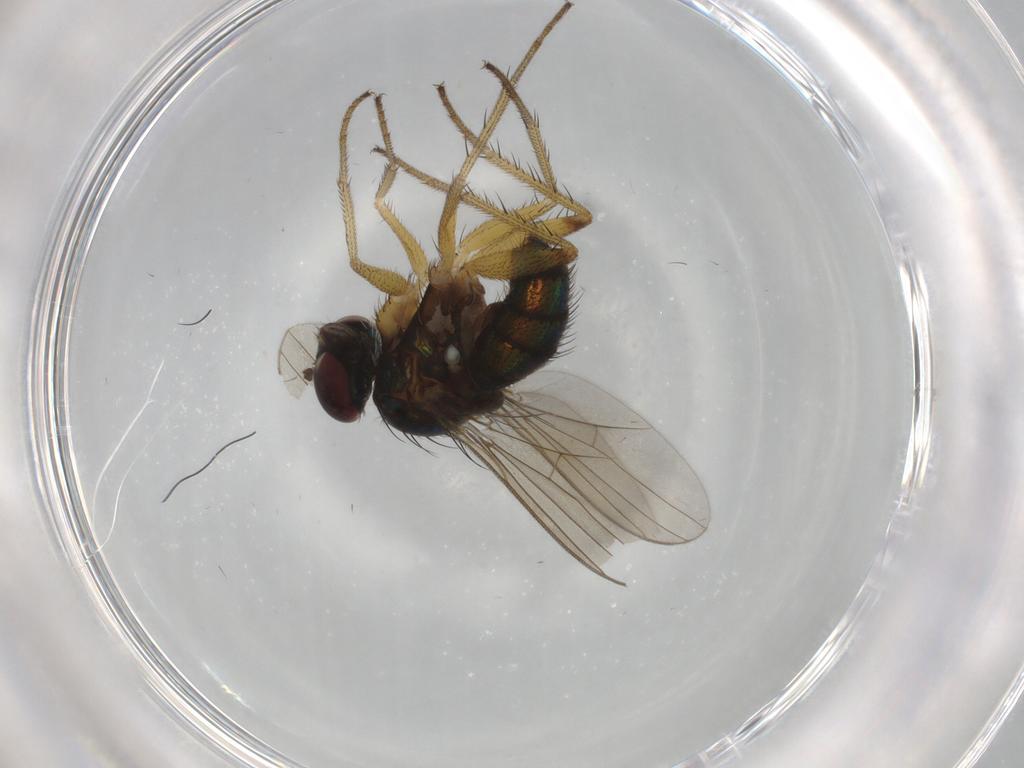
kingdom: Animalia
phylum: Arthropoda
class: Insecta
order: Diptera
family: Dolichopodidae
